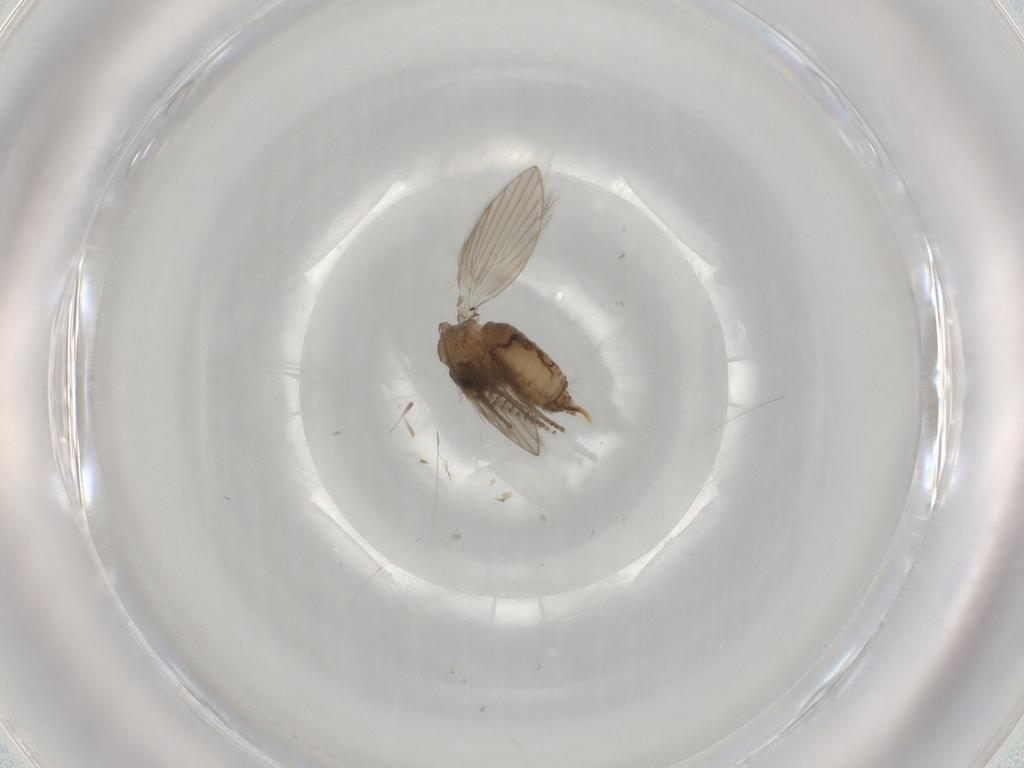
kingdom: Animalia
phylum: Arthropoda
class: Insecta
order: Diptera
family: Psychodidae
